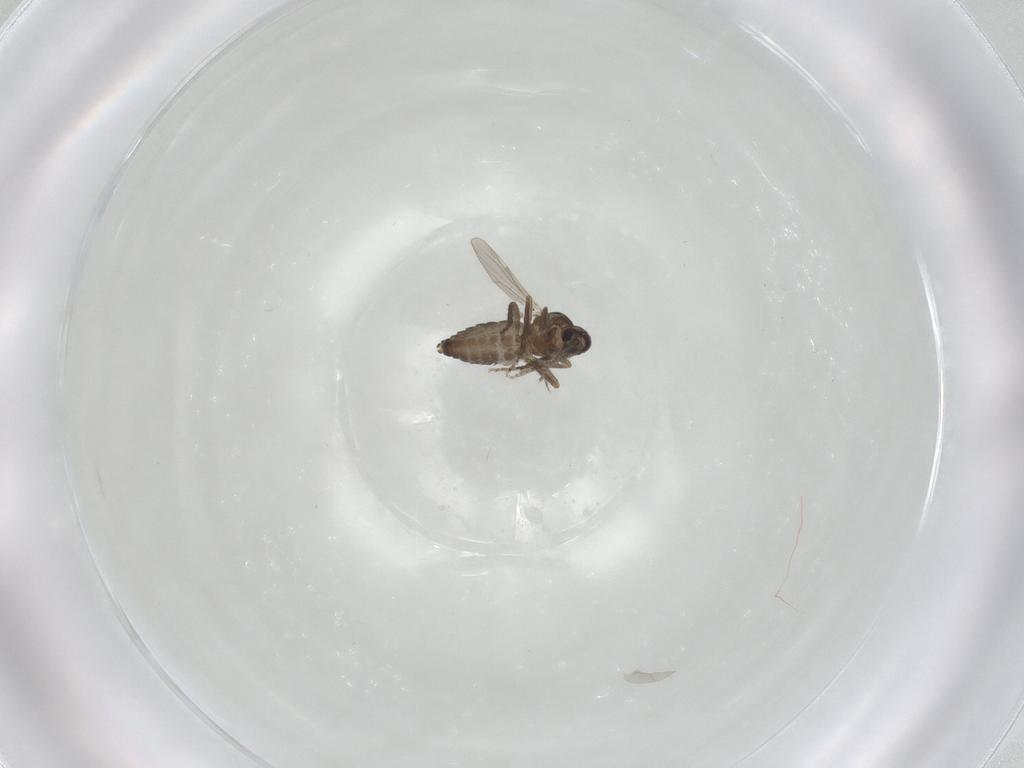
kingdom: Animalia
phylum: Arthropoda
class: Insecta
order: Diptera
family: Ceratopogonidae
